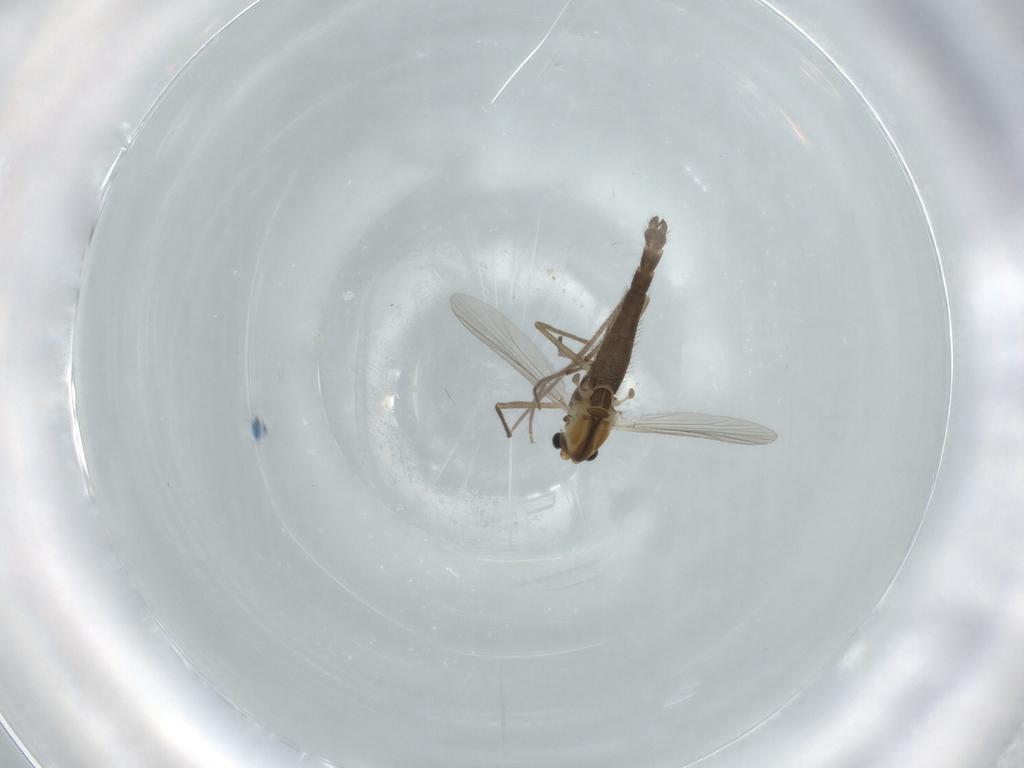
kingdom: Animalia
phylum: Arthropoda
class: Insecta
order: Diptera
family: Chironomidae
